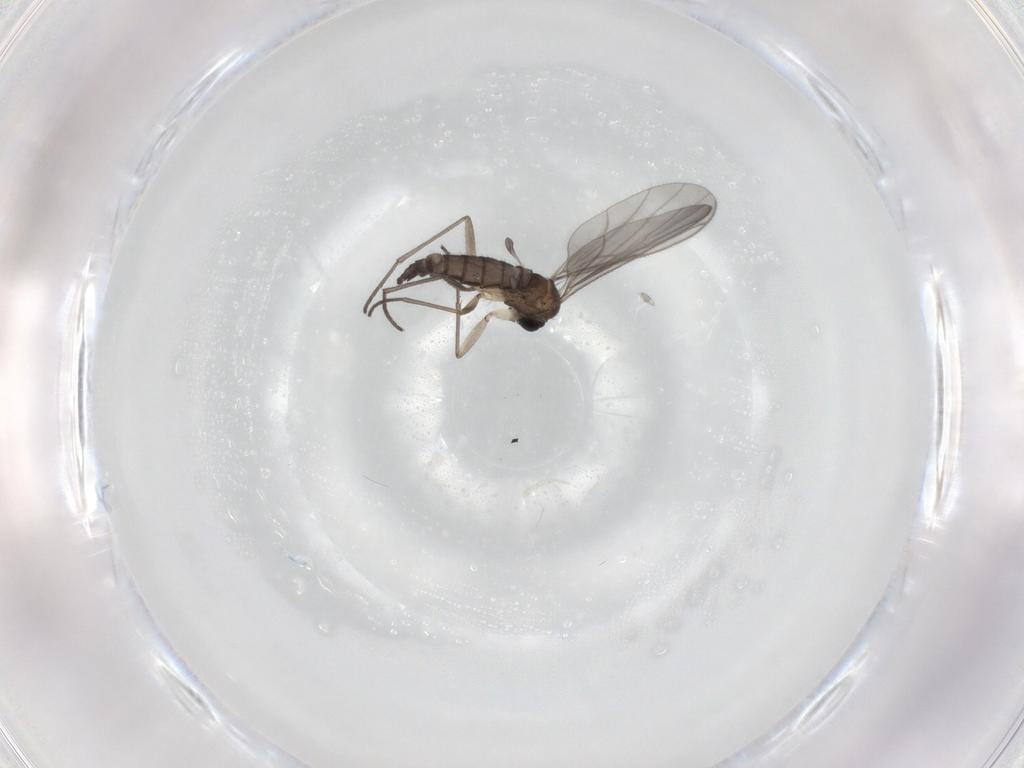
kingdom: Animalia
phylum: Arthropoda
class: Insecta
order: Diptera
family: Sciaridae
